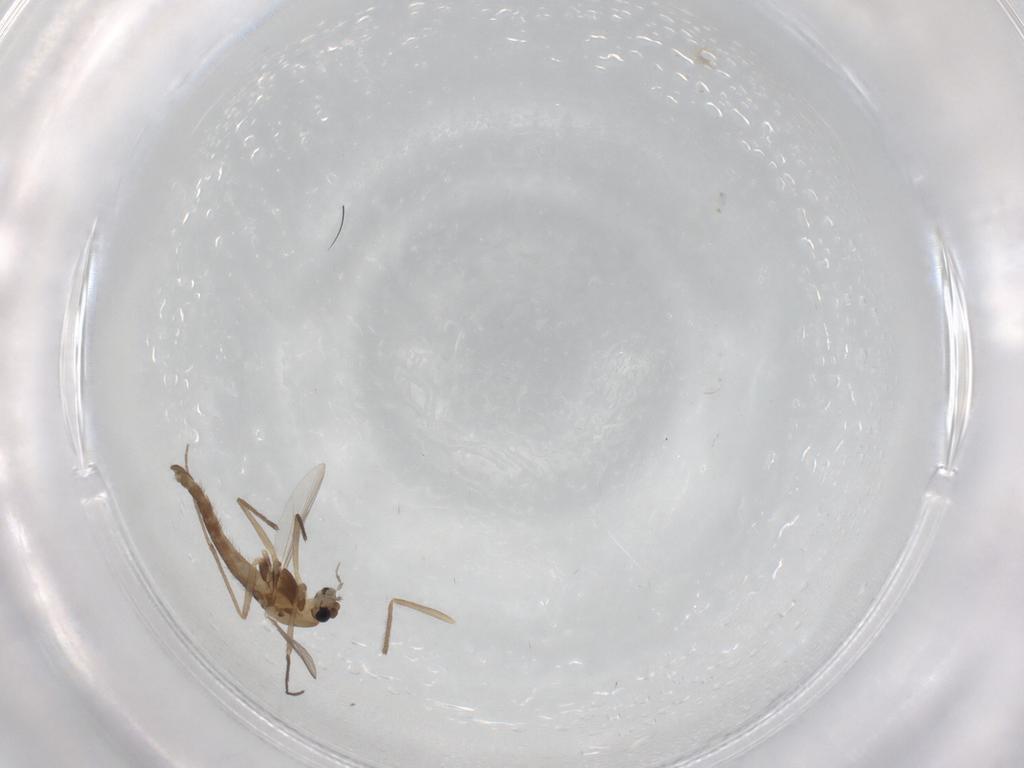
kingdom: Animalia
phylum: Arthropoda
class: Insecta
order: Diptera
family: Chironomidae
